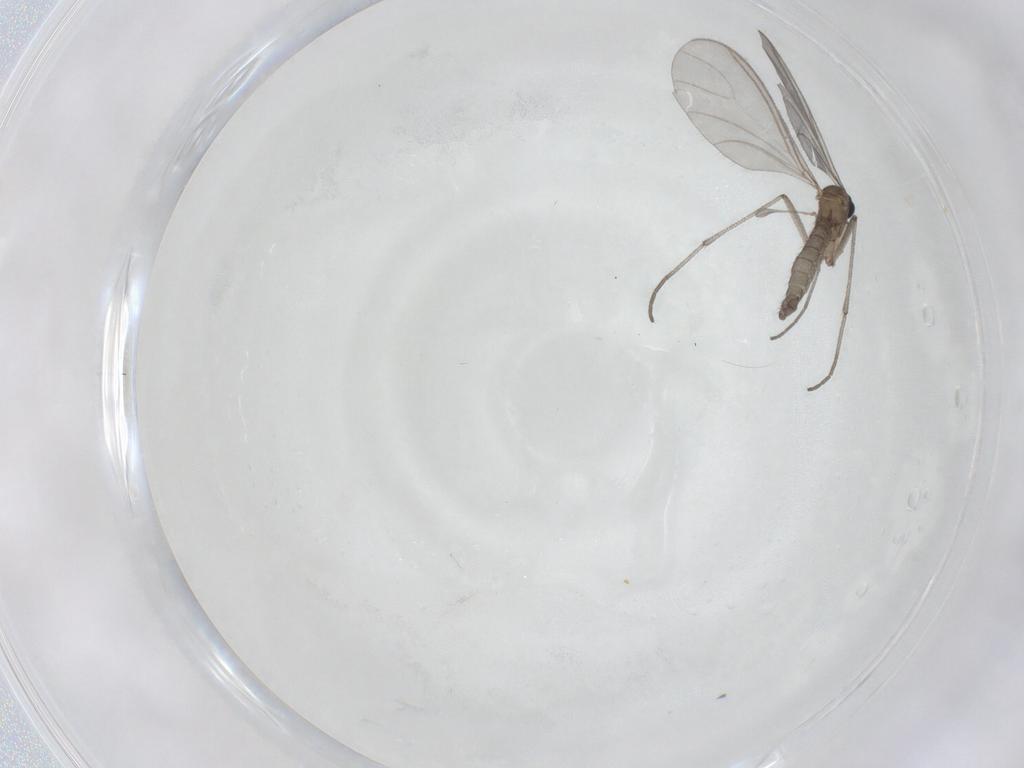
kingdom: Animalia
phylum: Arthropoda
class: Insecta
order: Diptera
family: Sciaridae
